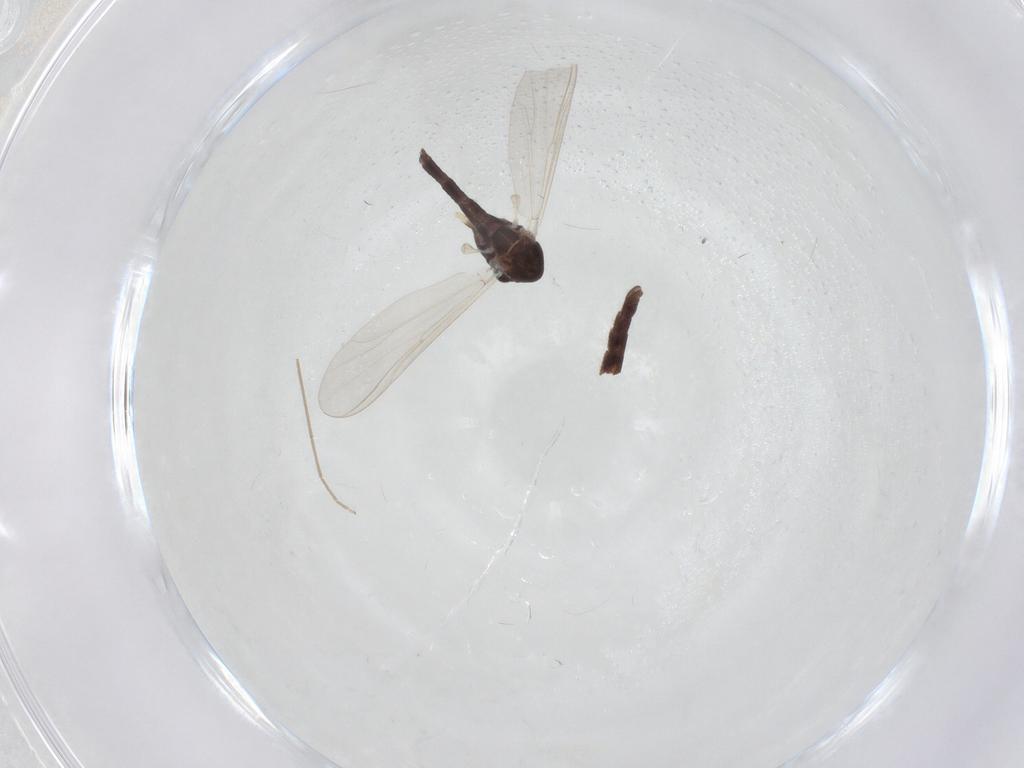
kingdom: Animalia
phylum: Arthropoda
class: Insecta
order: Diptera
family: Chironomidae
